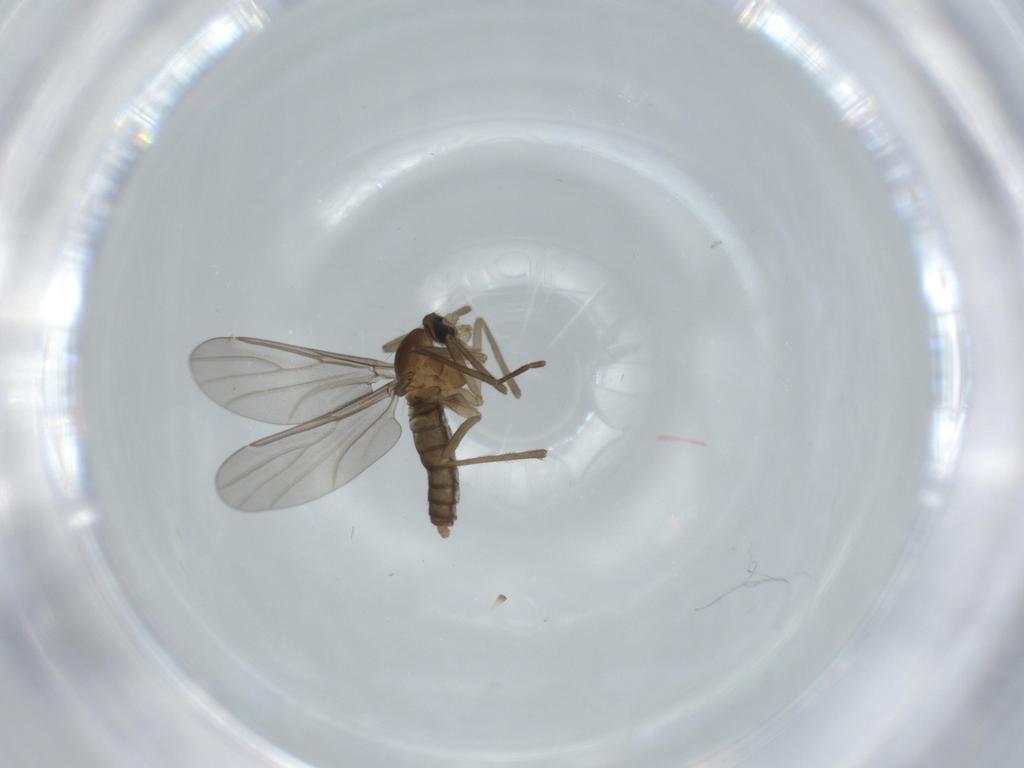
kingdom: Animalia
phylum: Arthropoda
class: Insecta
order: Diptera
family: Cecidomyiidae
